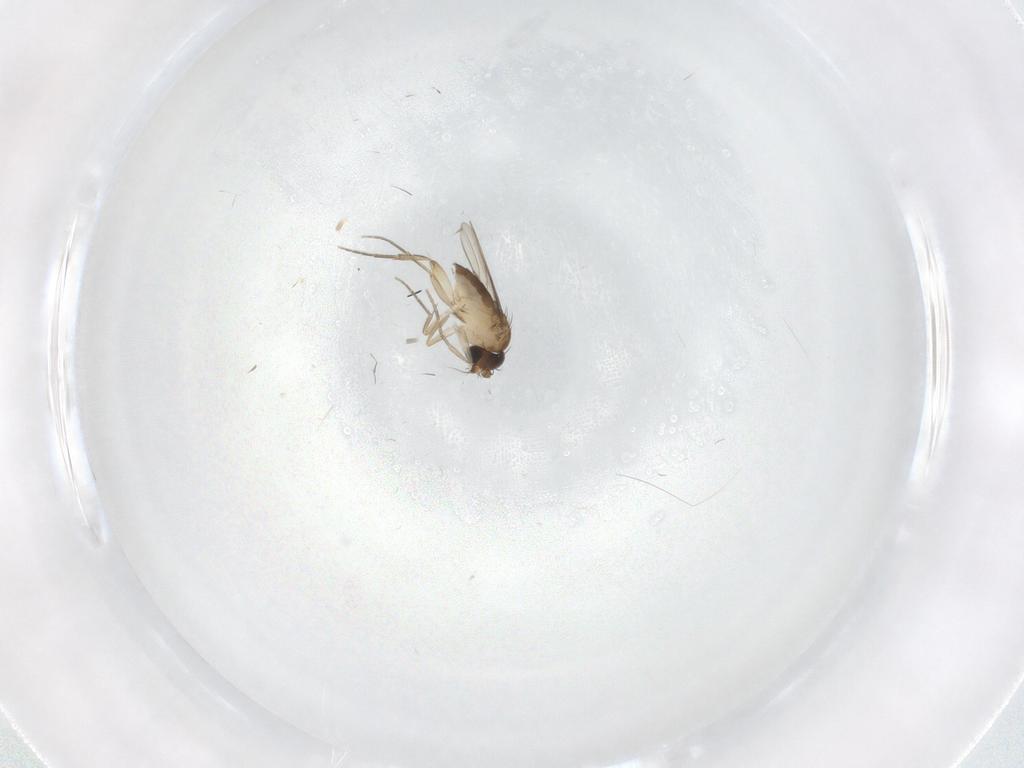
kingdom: Animalia
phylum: Arthropoda
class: Insecta
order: Diptera
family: Phoridae
